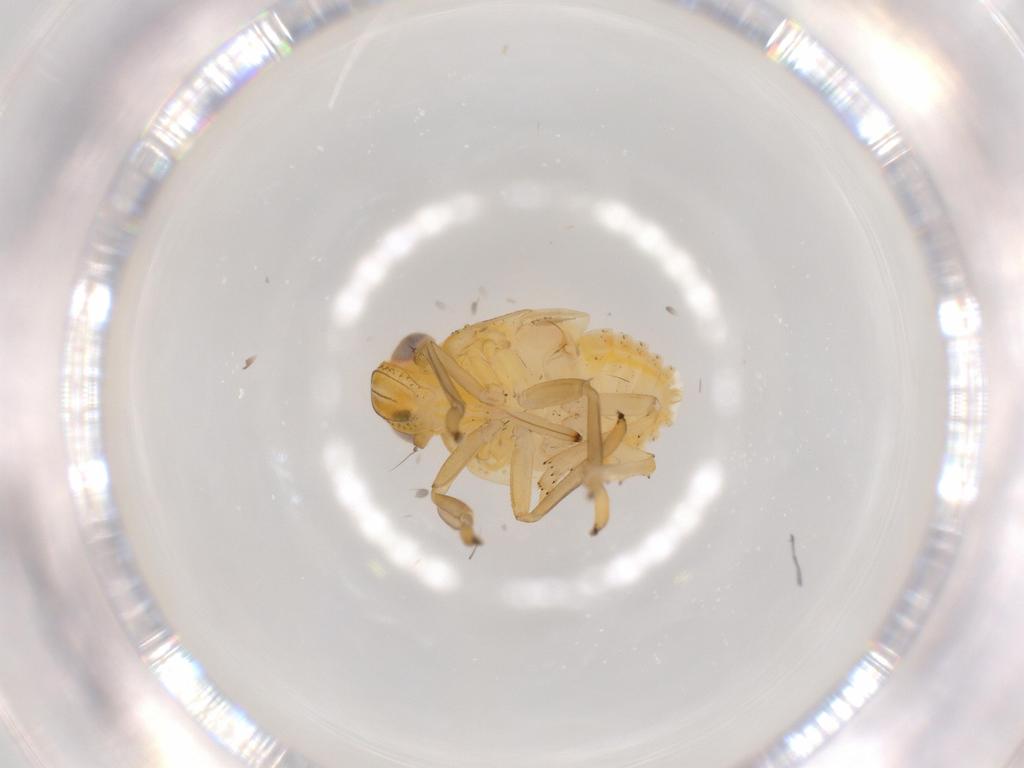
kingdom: Animalia
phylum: Arthropoda
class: Insecta
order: Hemiptera
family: Issidae
